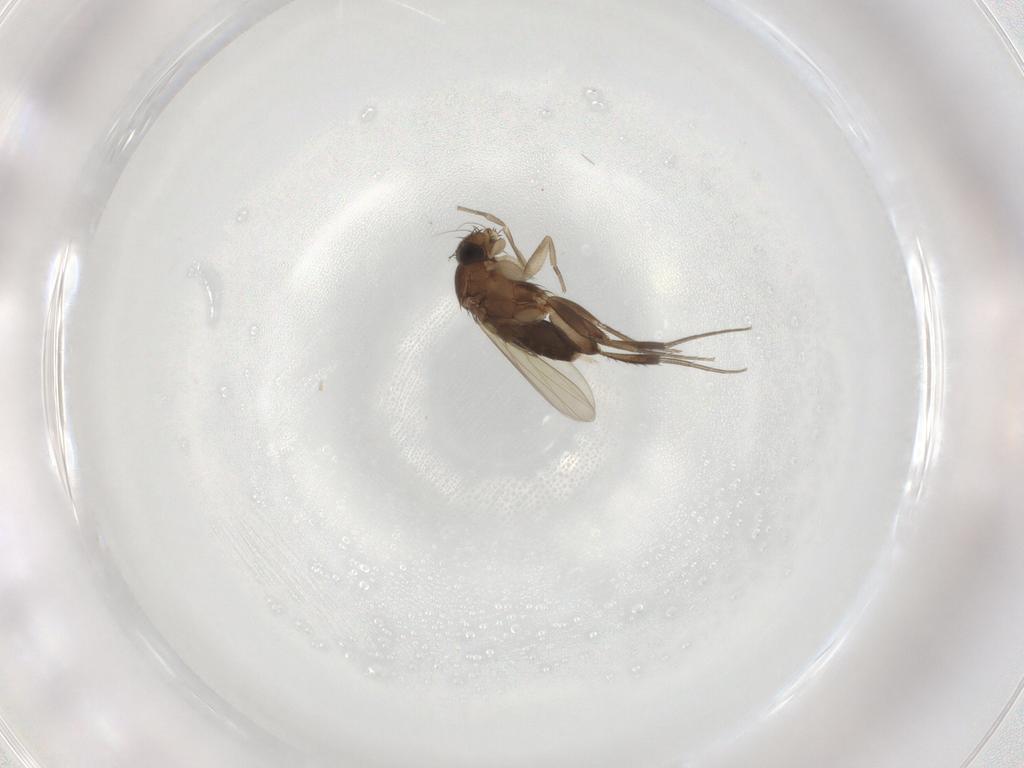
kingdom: Animalia
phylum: Arthropoda
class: Insecta
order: Diptera
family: Phoridae
